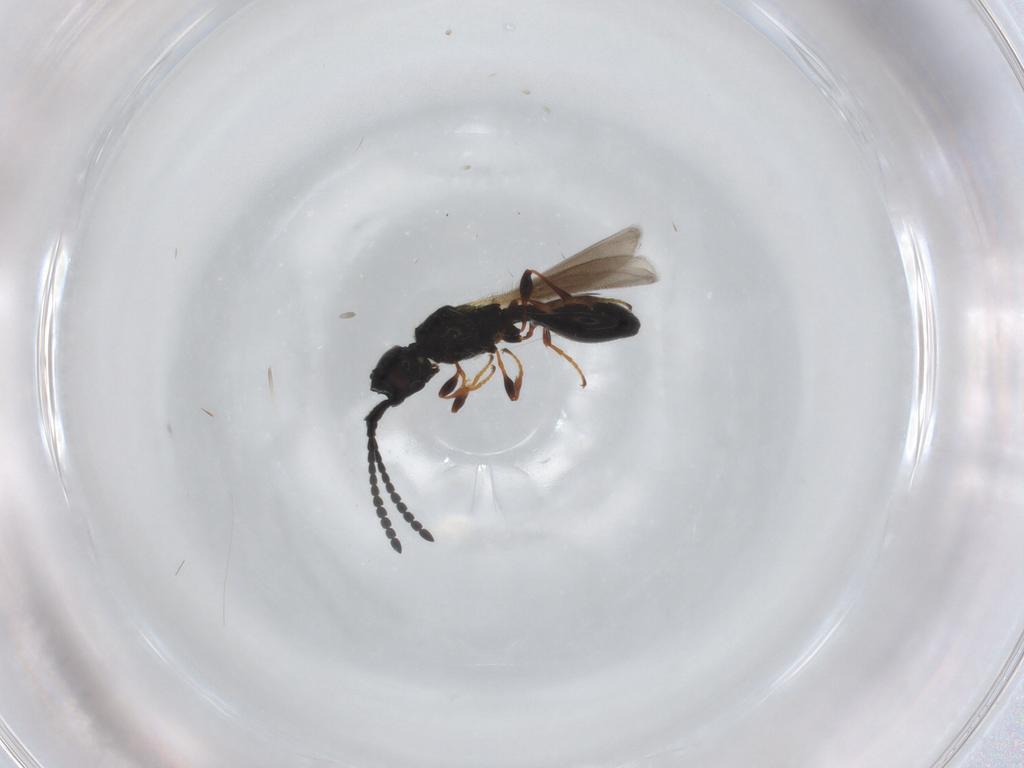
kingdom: Animalia
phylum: Arthropoda
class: Insecta
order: Hymenoptera
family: Diapriidae
